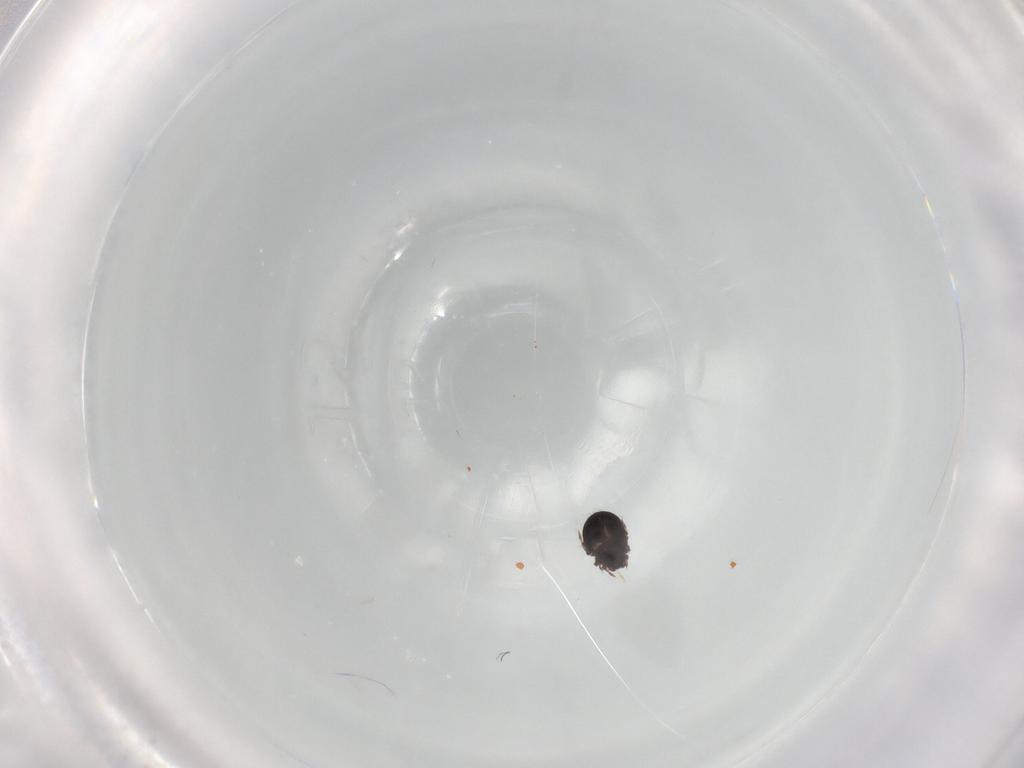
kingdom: Animalia
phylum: Arthropoda
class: Arachnida
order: Sarcoptiformes
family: Carabodidae
